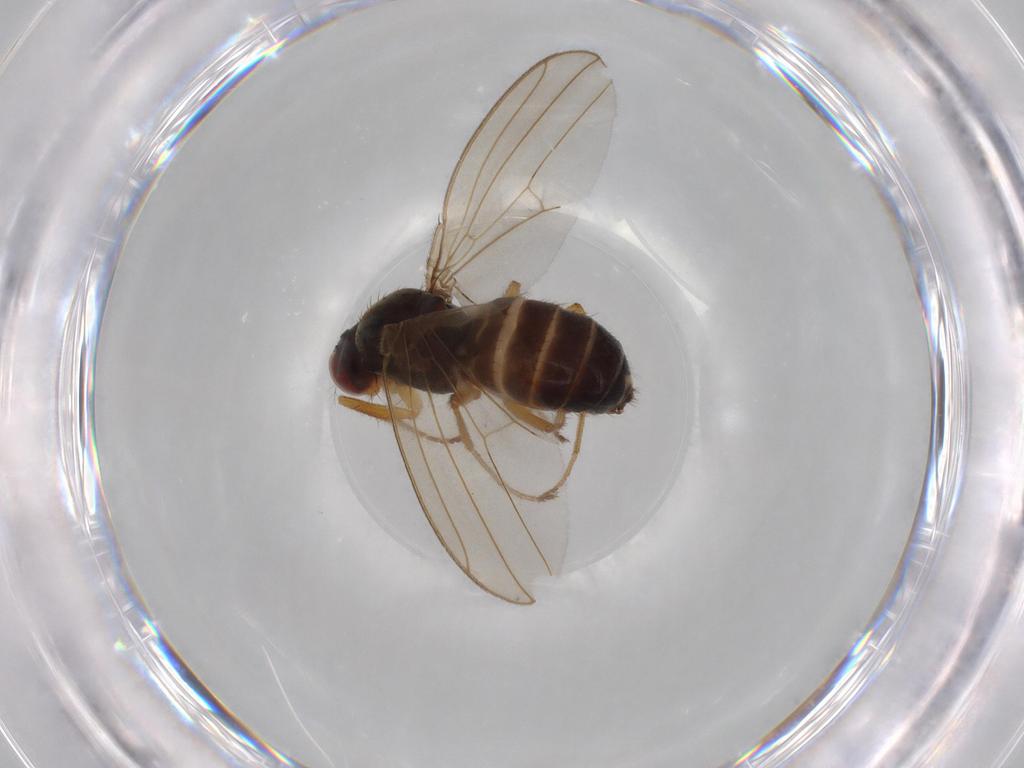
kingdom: Animalia
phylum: Arthropoda
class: Insecta
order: Diptera
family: Drosophilidae
